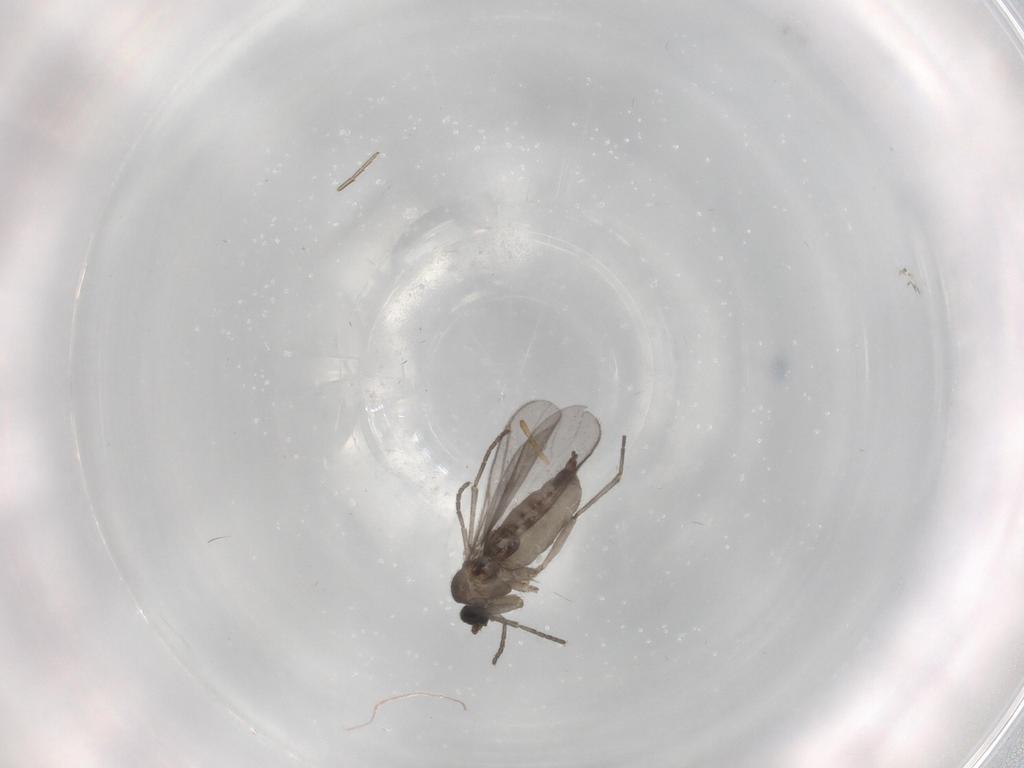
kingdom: Animalia
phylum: Arthropoda
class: Insecta
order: Diptera
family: Sciaridae
